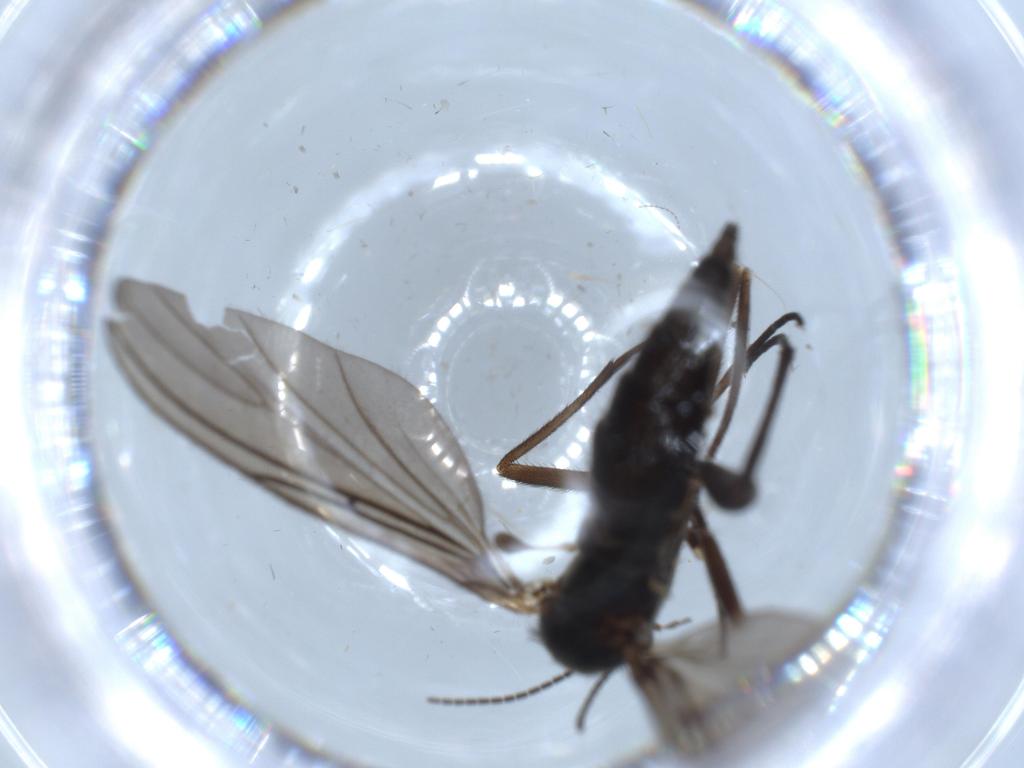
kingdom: Animalia
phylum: Arthropoda
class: Insecta
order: Diptera
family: Sciaridae
